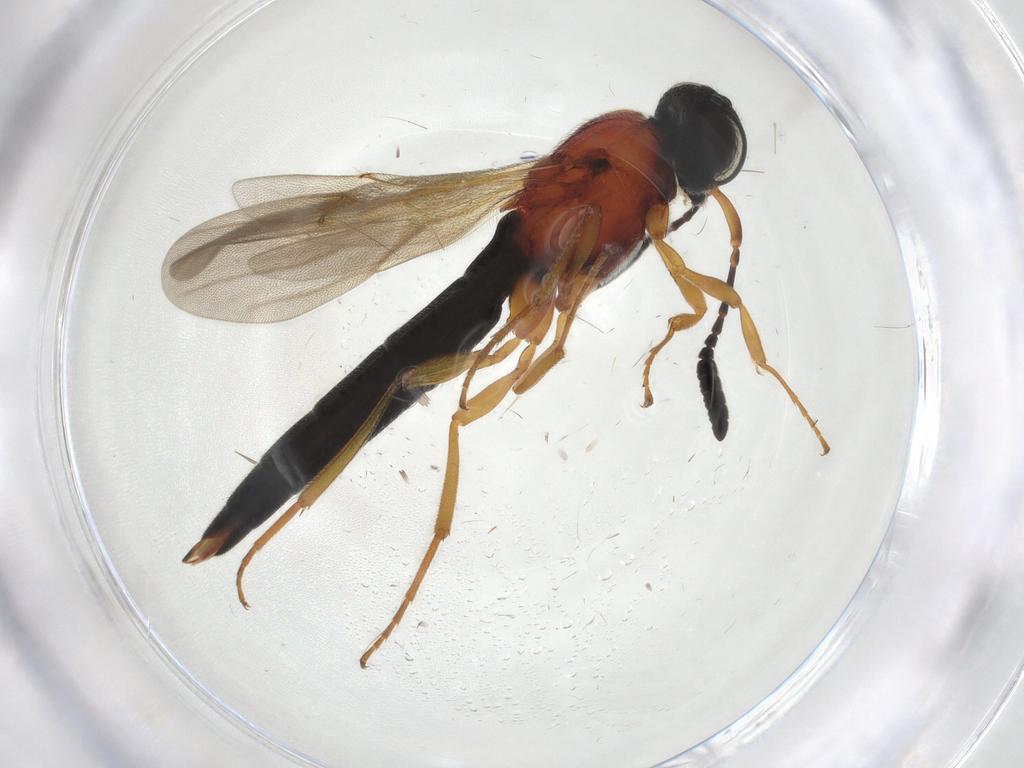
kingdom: Animalia
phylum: Arthropoda
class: Insecta
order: Hymenoptera
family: Scelionidae
